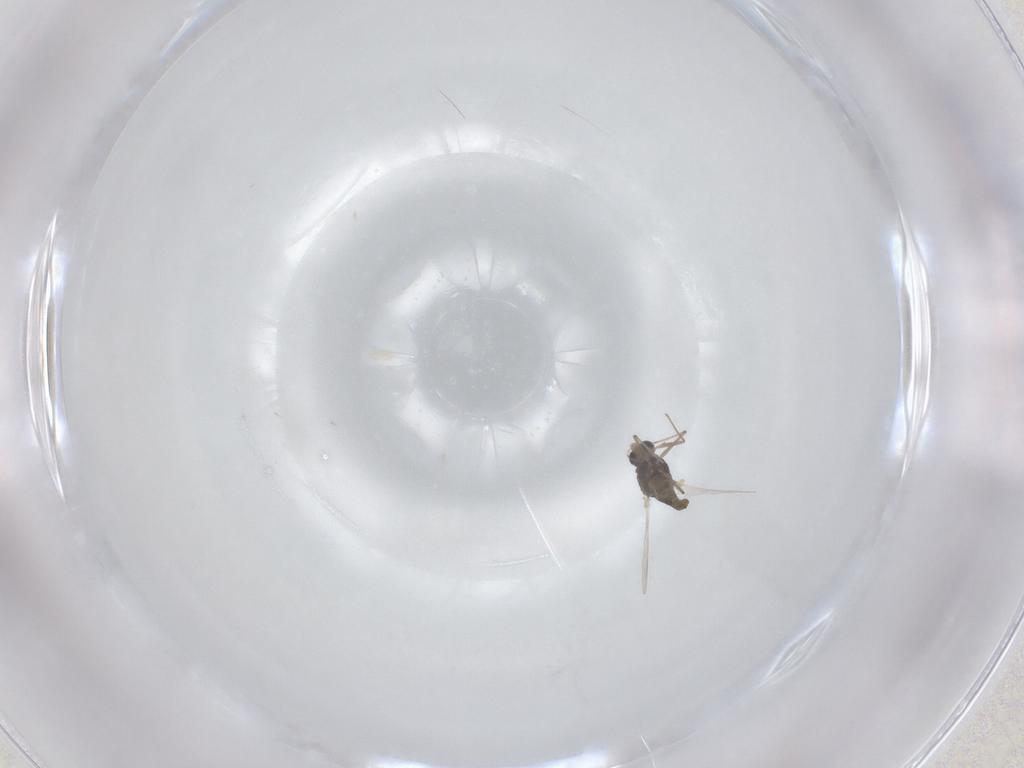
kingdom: Animalia
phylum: Arthropoda
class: Insecta
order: Diptera
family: Chironomidae
